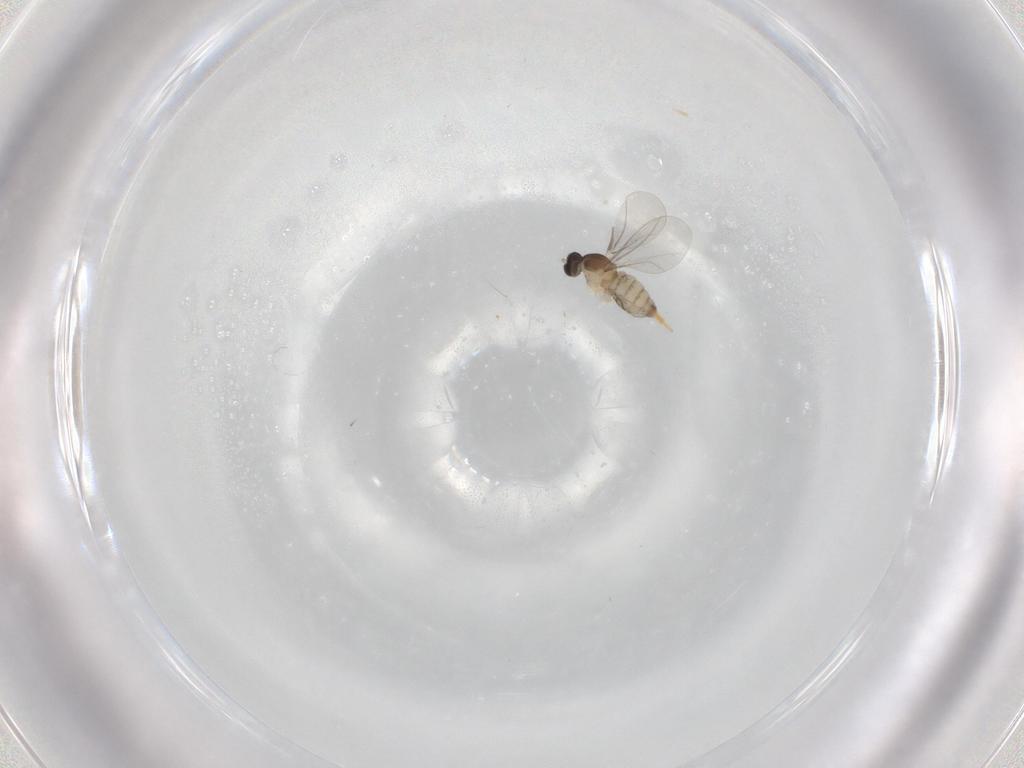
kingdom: Animalia
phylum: Arthropoda
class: Insecta
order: Diptera
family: Cecidomyiidae
